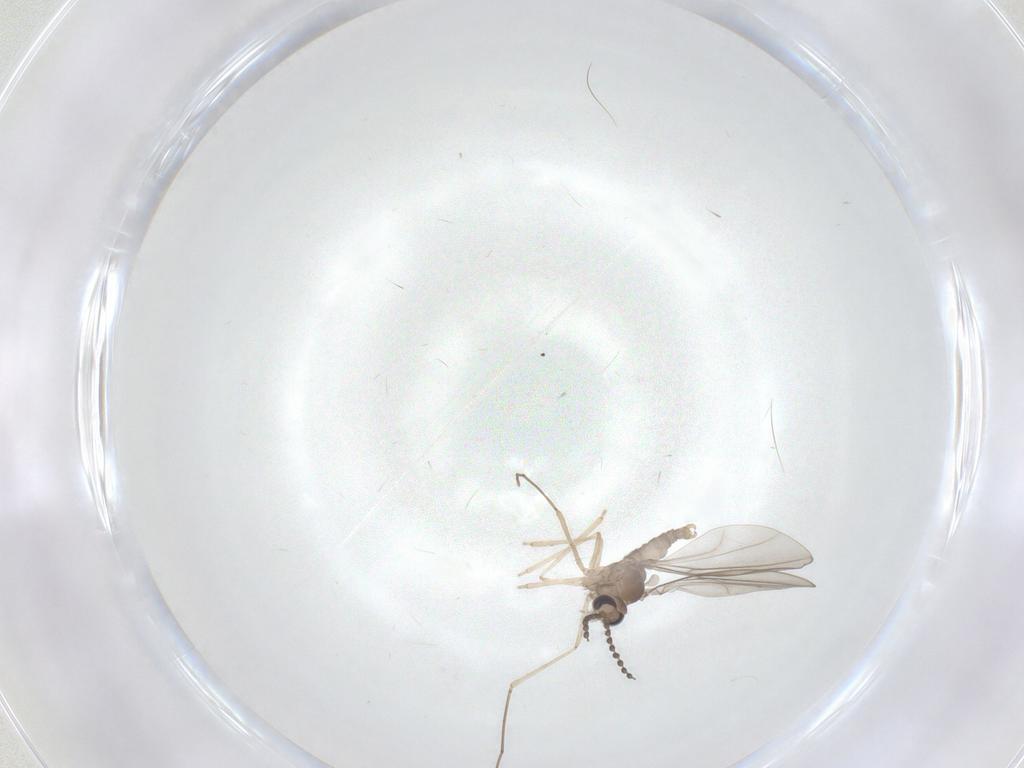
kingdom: Animalia
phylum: Arthropoda
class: Insecta
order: Diptera
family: Cecidomyiidae
